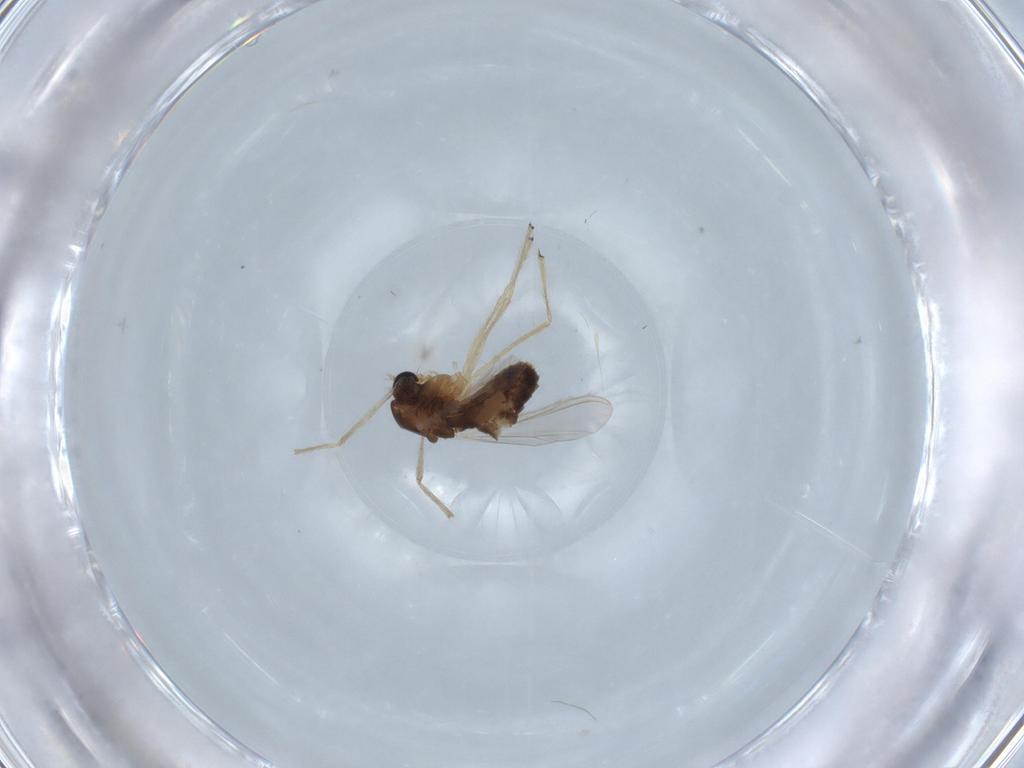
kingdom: Animalia
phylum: Arthropoda
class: Insecta
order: Diptera
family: Chironomidae
